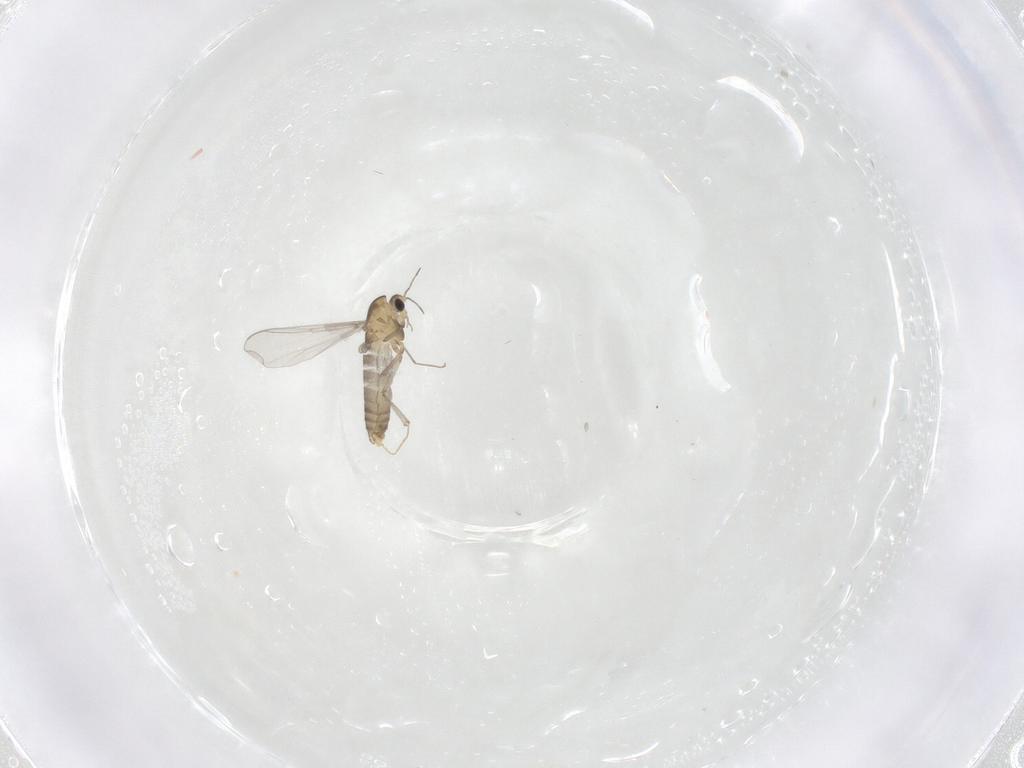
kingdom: Animalia
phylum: Arthropoda
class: Insecta
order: Diptera
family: Chironomidae
